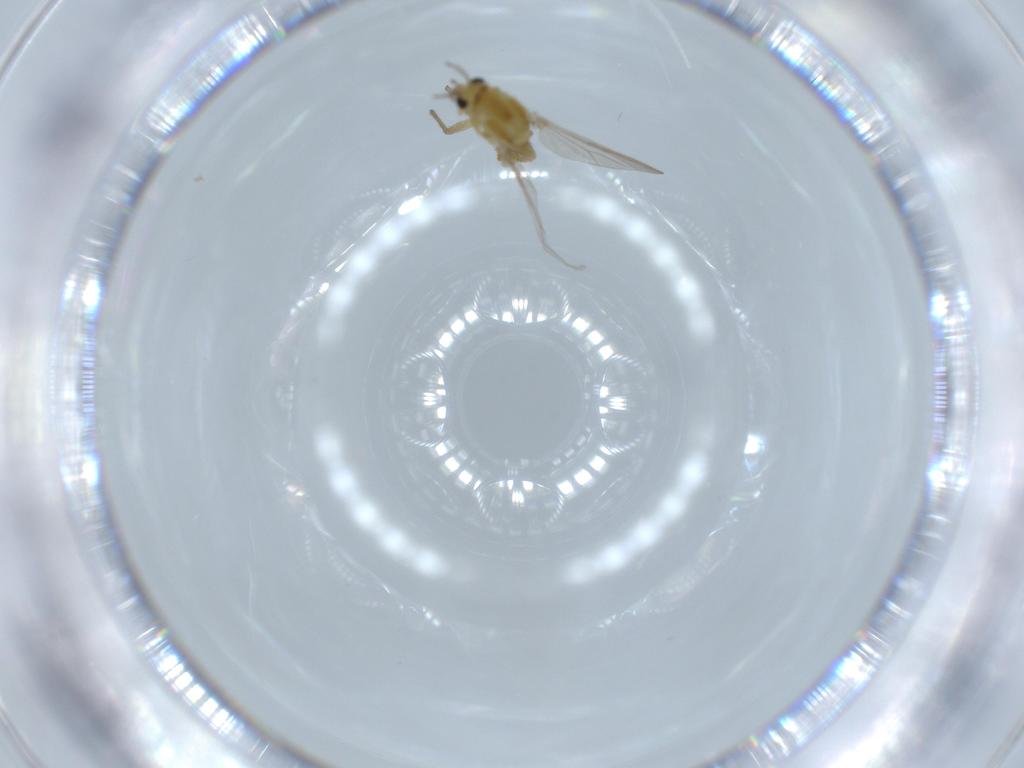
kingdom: Animalia
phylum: Arthropoda
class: Insecta
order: Diptera
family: Chironomidae
